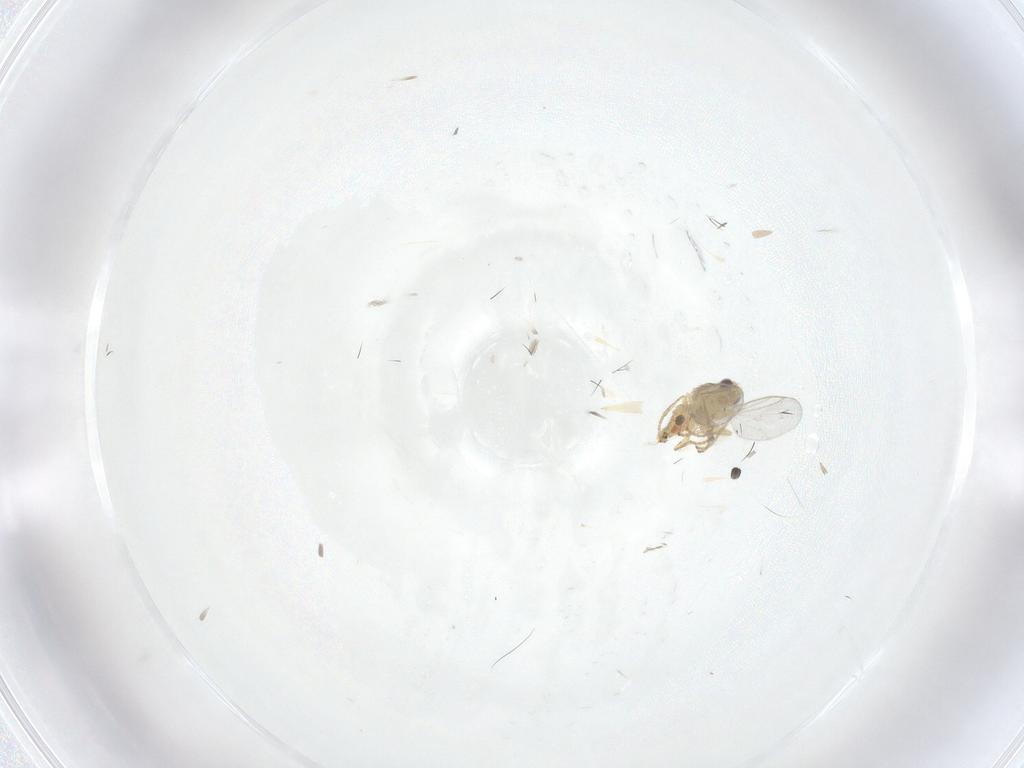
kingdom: Animalia
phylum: Arthropoda
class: Insecta
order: Diptera
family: Agromyzidae
